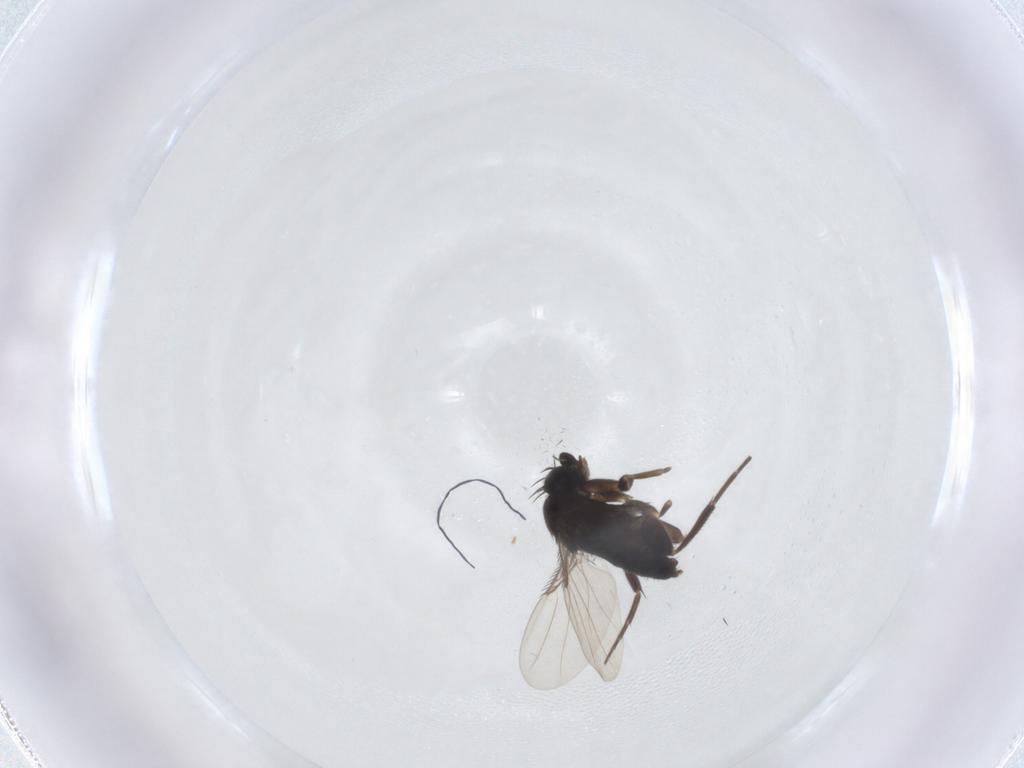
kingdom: Animalia
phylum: Arthropoda
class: Insecta
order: Diptera
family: Phoridae
